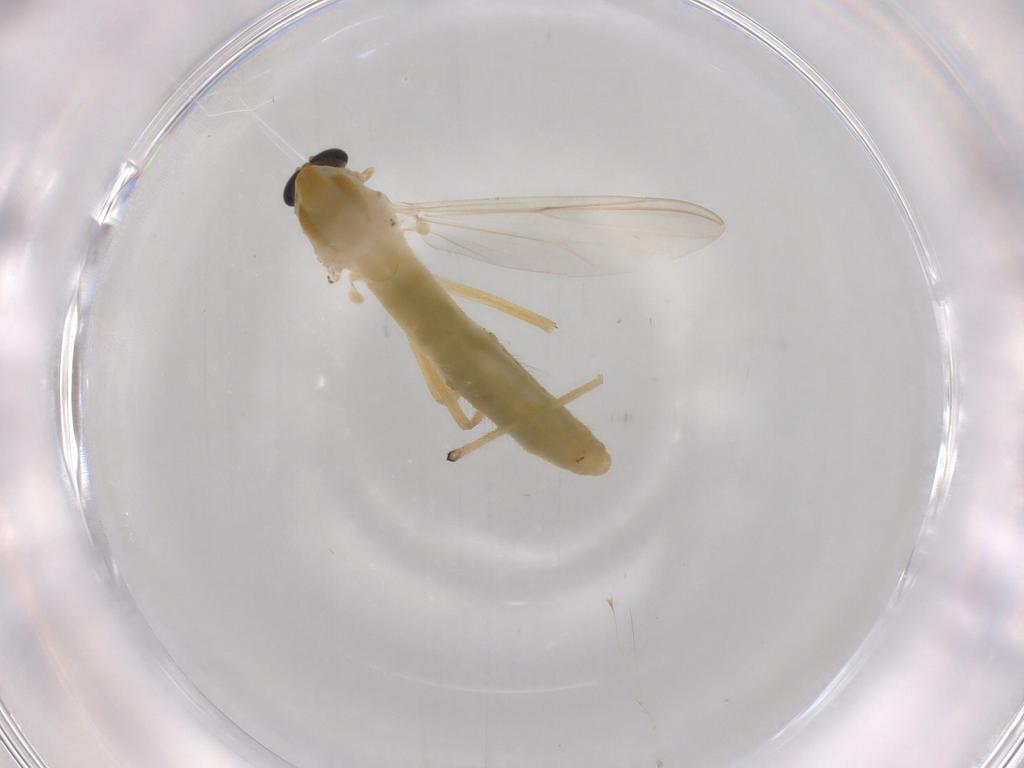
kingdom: Animalia
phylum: Arthropoda
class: Insecta
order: Diptera
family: Chironomidae
